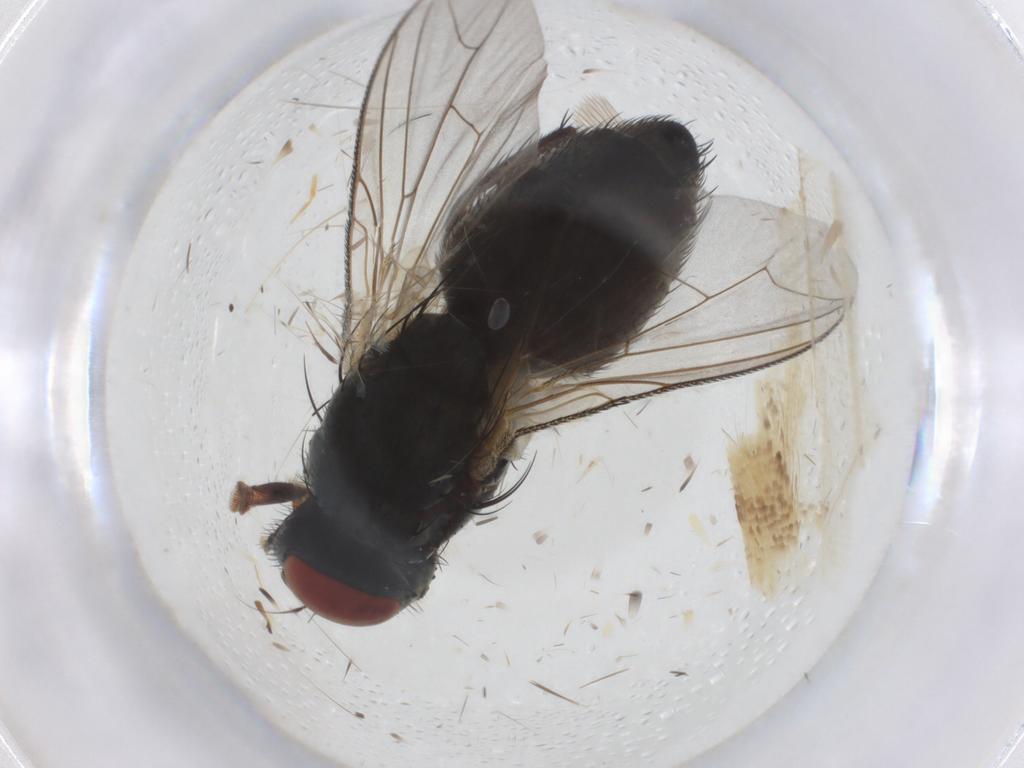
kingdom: Animalia
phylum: Arthropoda
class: Insecta
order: Diptera
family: Sarcophagidae
